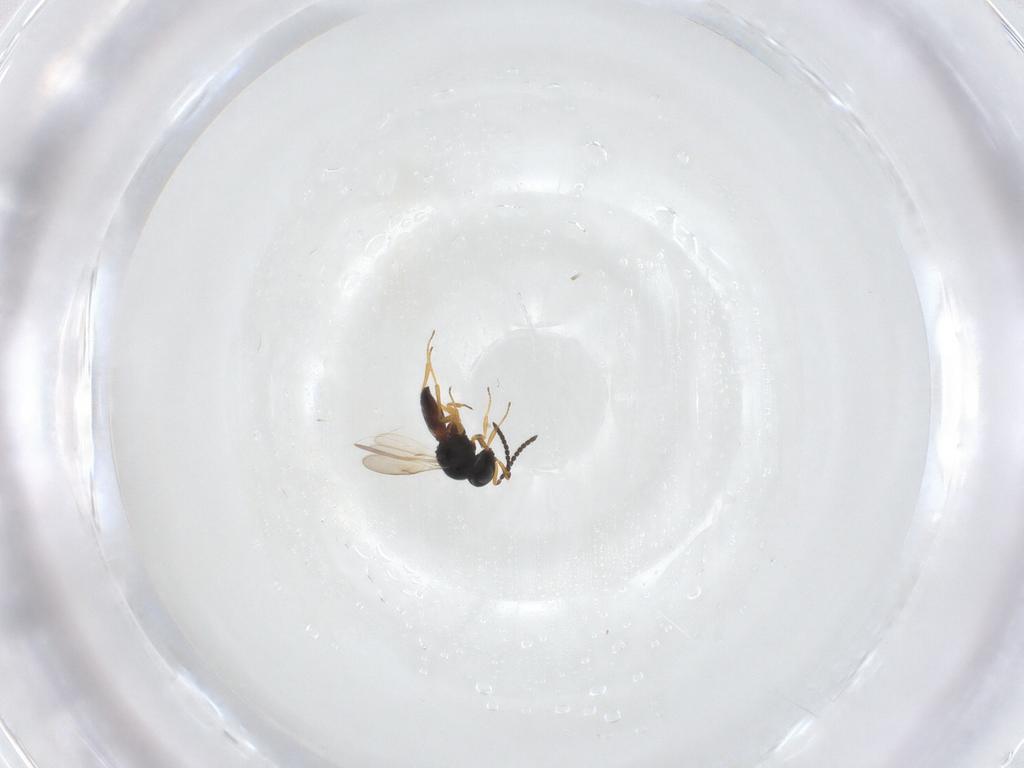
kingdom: Animalia
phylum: Arthropoda
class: Insecta
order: Hymenoptera
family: Scelionidae
